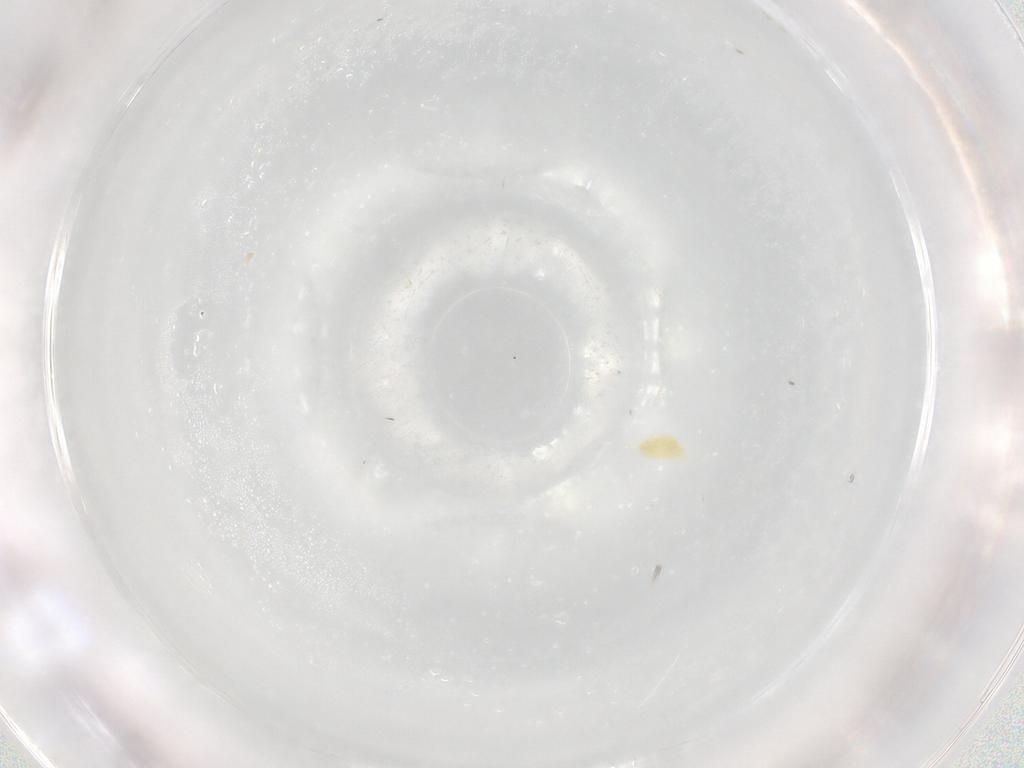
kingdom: Animalia
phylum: Arthropoda
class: Arachnida
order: Trombidiformes
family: Eupodidae
